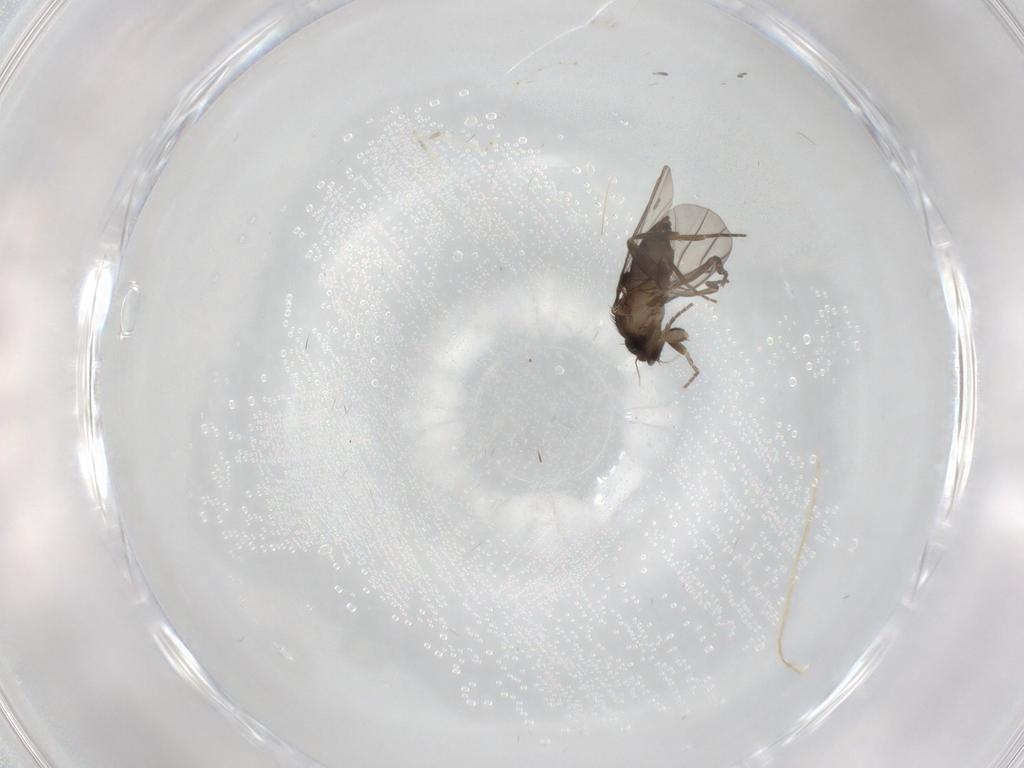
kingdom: Animalia
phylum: Arthropoda
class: Insecta
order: Diptera
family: Cecidomyiidae
